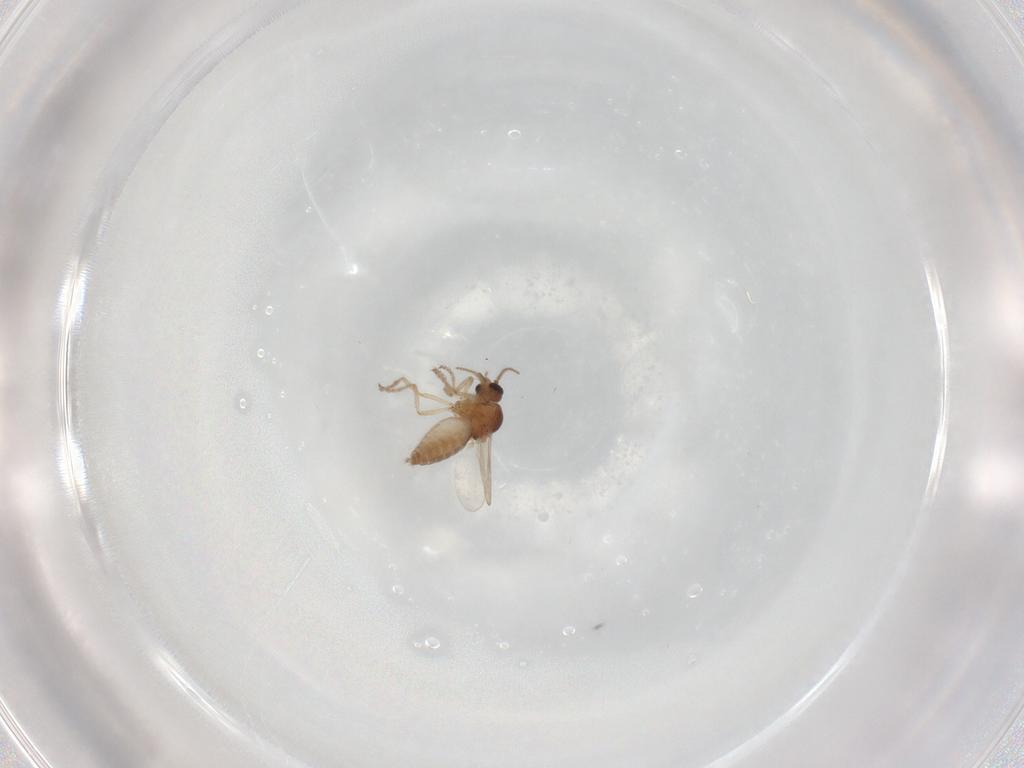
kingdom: Animalia
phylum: Arthropoda
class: Insecta
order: Diptera
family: Ceratopogonidae
